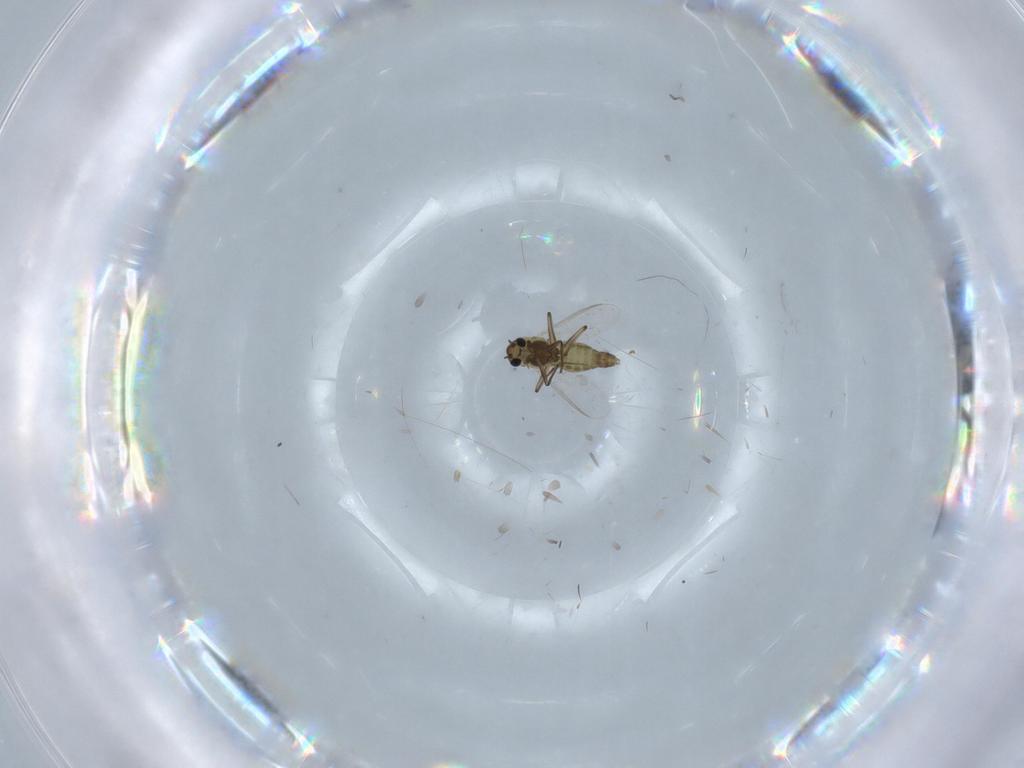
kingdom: Animalia
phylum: Arthropoda
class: Insecta
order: Diptera
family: Chironomidae
